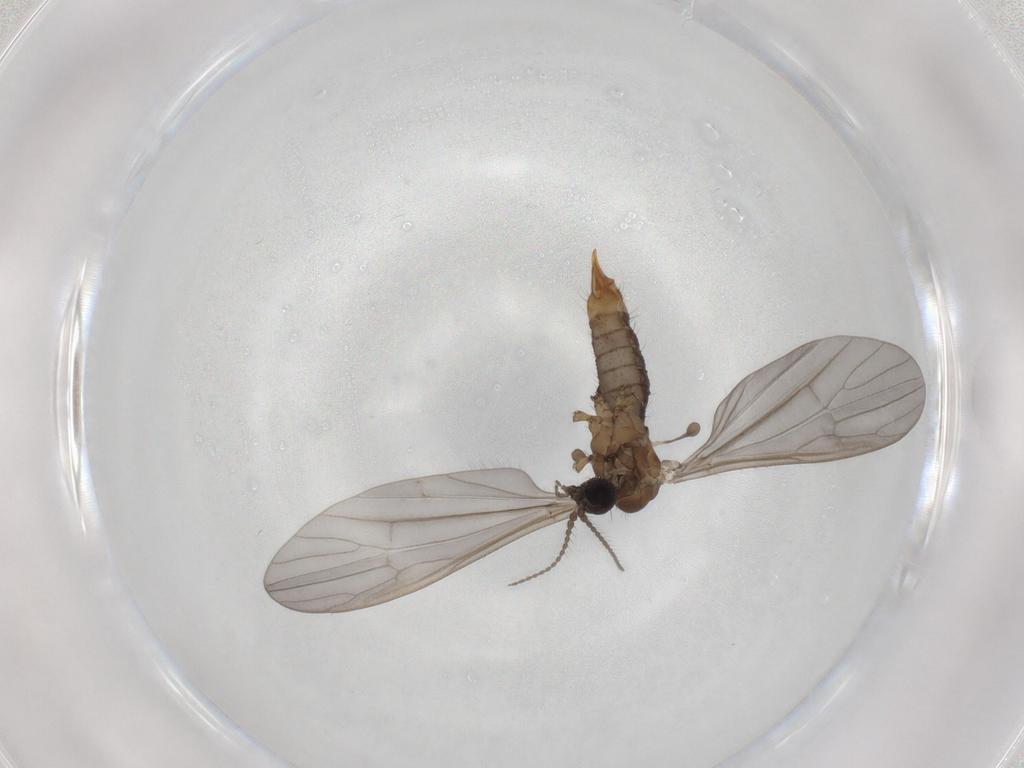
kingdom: Animalia
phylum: Arthropoda
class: Insecta
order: Diptera
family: Limoniidae
